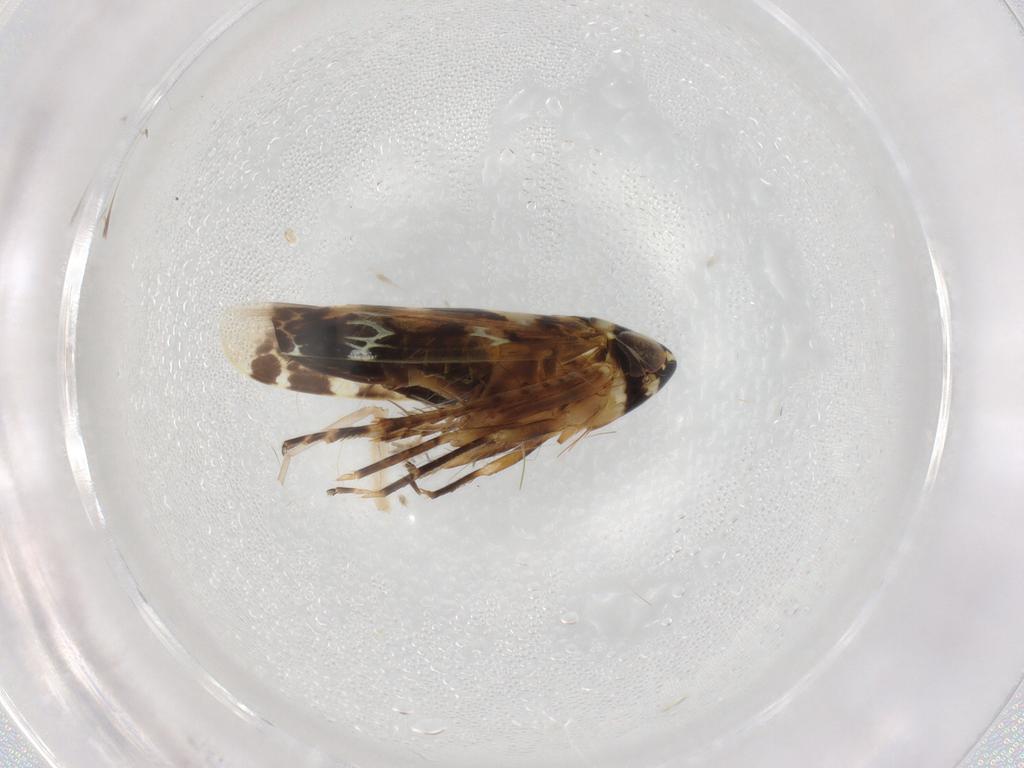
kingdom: Animalia
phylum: Arthropoda
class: Insecta
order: Hemiptera
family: Cicadellidae
